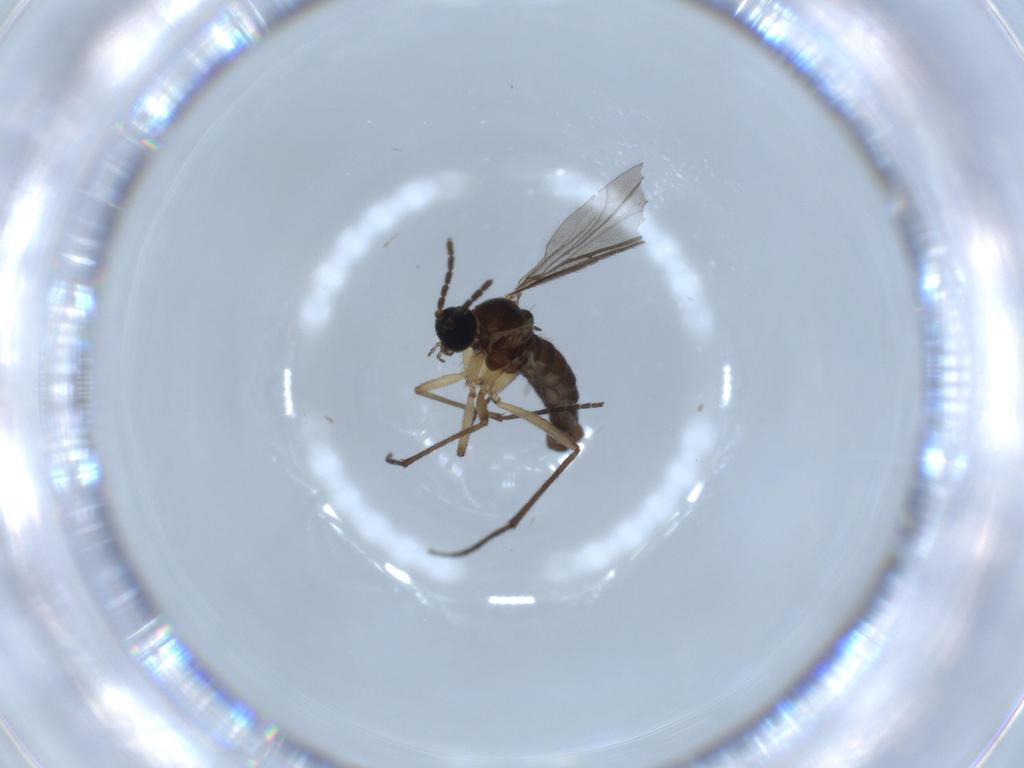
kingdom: Animalia
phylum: Arthropoda
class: Insecta
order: Diptera
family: Sciaridae
